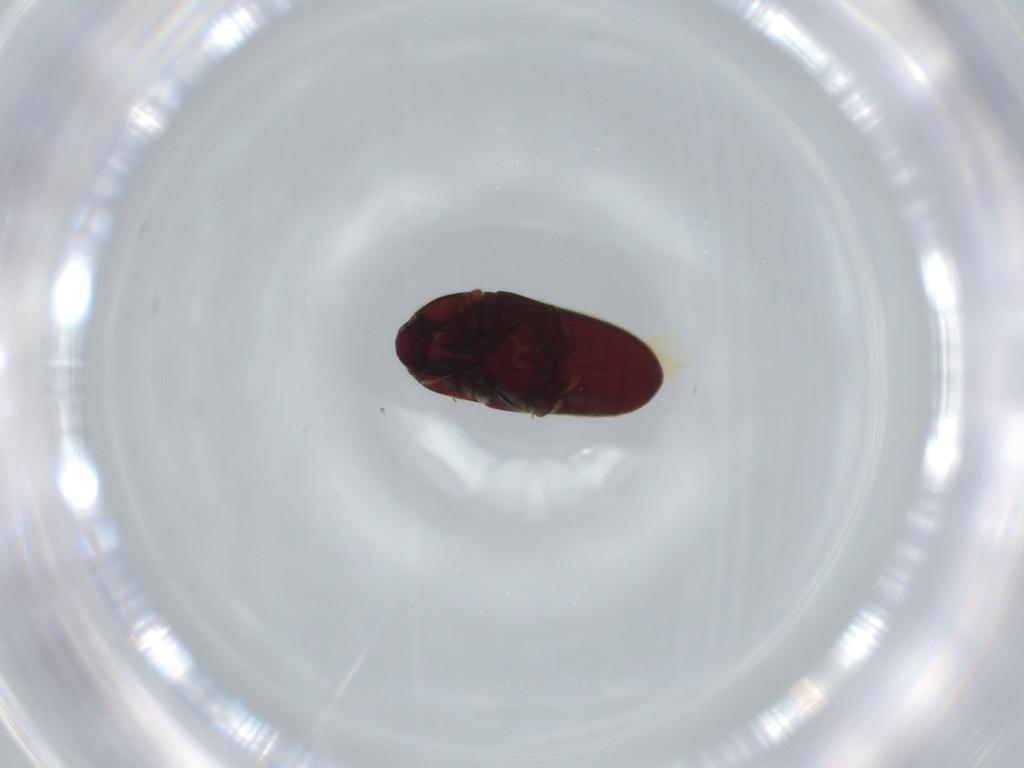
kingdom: Animalia
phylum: Arthropoda
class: Insecta
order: Coleoptera
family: Throscidae
